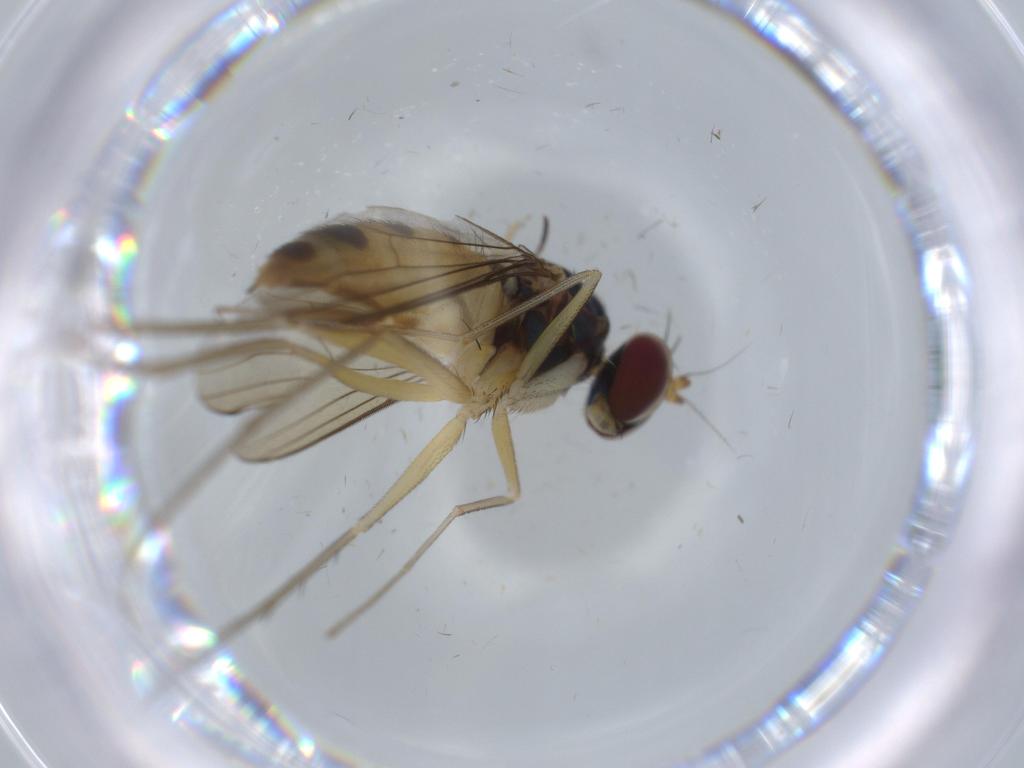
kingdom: Animalia
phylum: Arthropoda
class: Insecta
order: Diptera
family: Dolichopodidae
